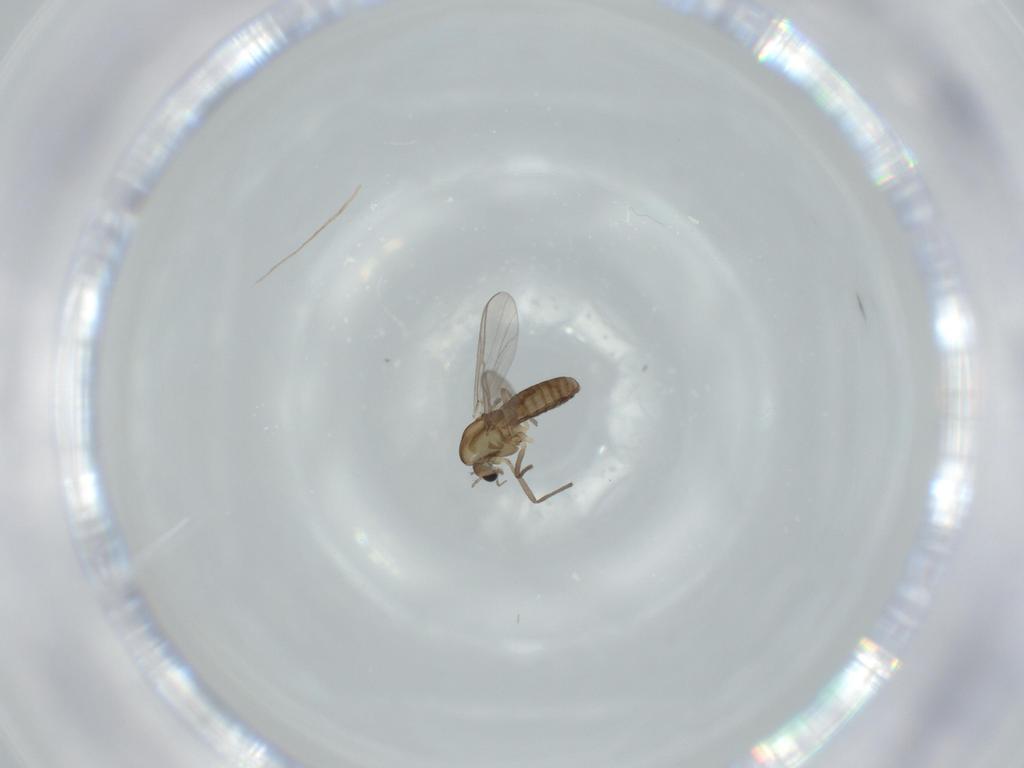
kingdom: Animalia
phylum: Arthropoda
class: Insecta
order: Diptera
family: Chironomidae
